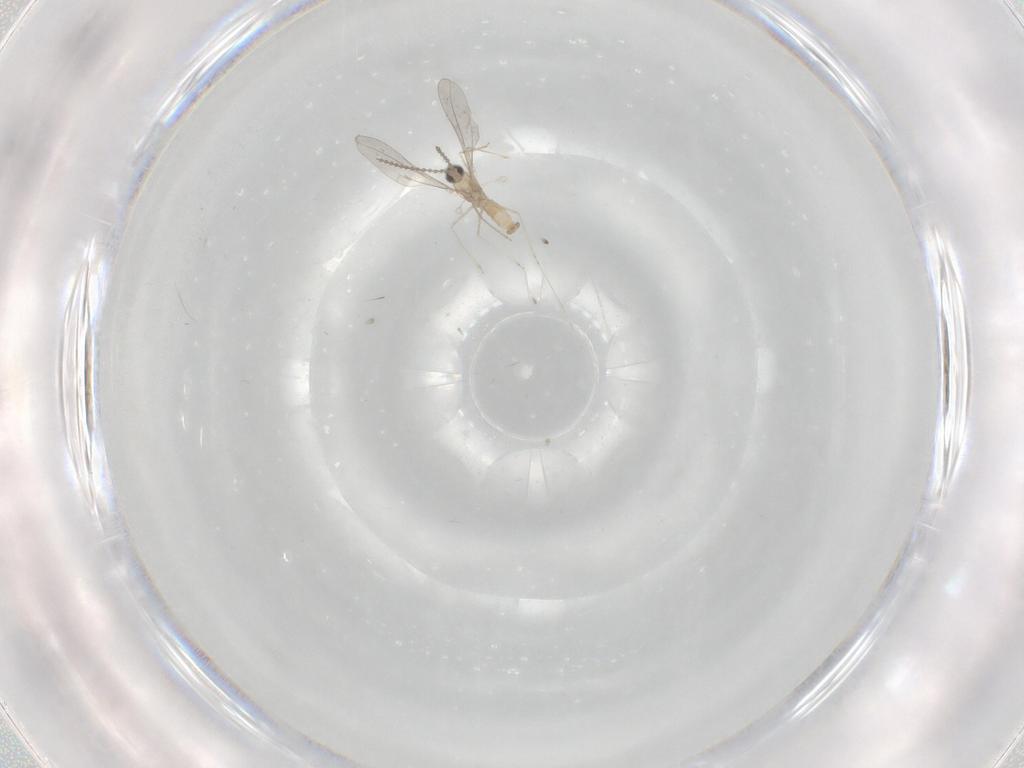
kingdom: Animalia
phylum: Arthropoda
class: Insecta
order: Diptera
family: Cecidomyiidae
